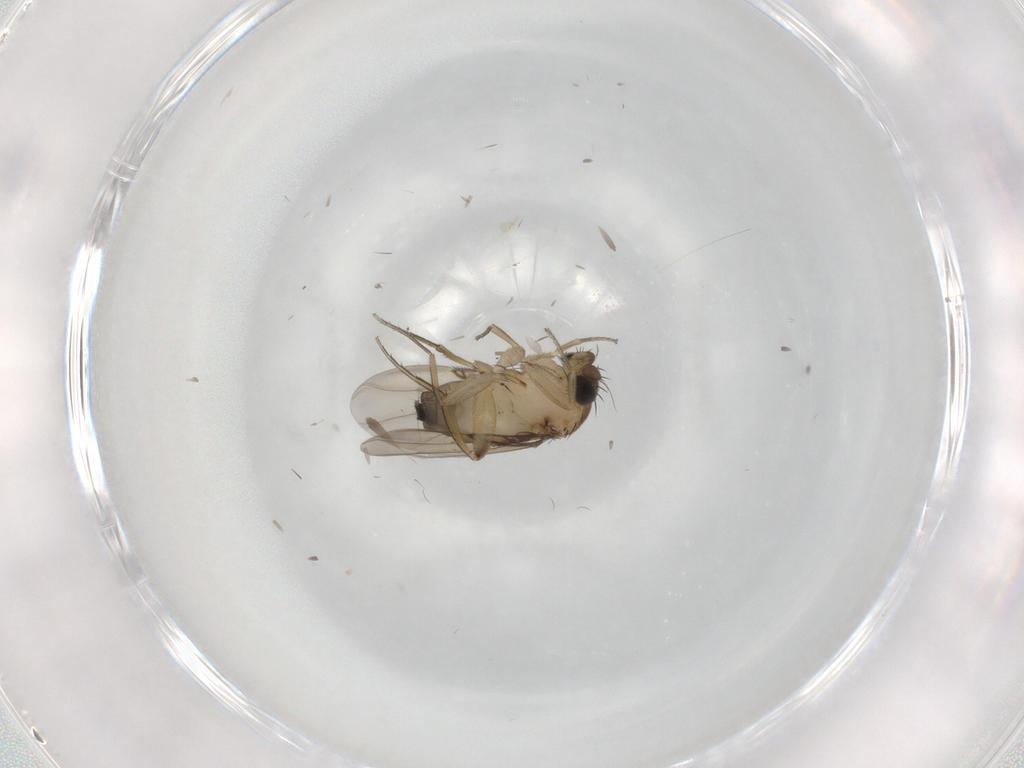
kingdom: Animalia
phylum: Arthropoda
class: Insecta
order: Diptera
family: Phoridae
